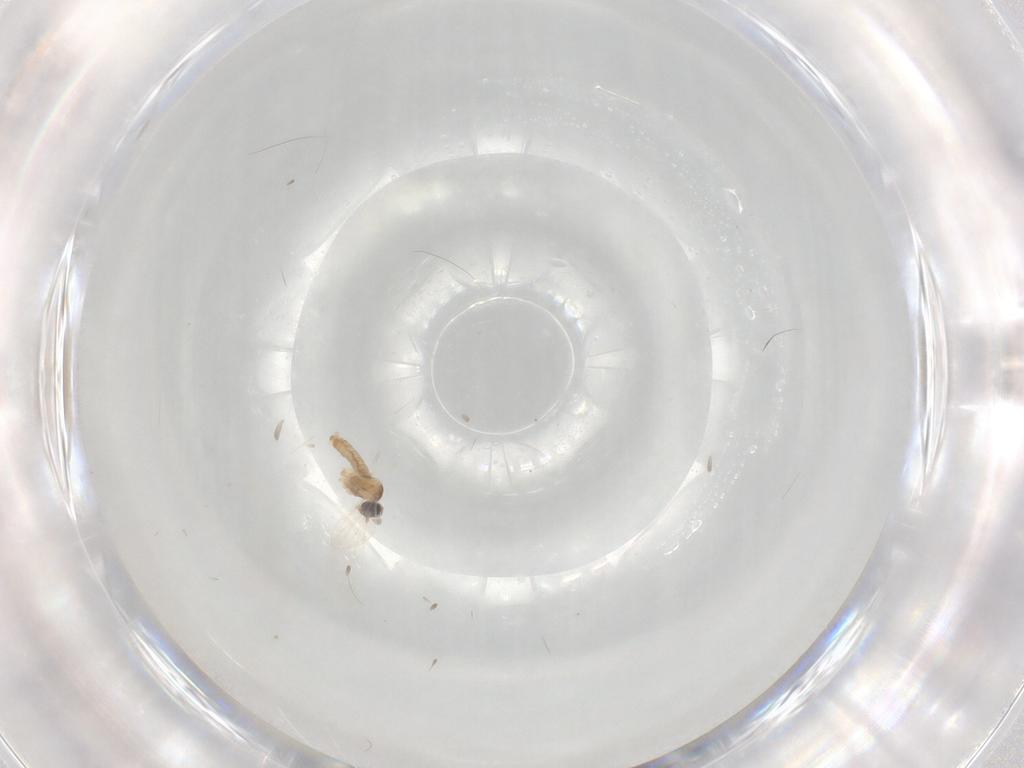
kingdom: Animalia
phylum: Arthropoda
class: Insecta
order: Diptera
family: Cecidomyiidae
